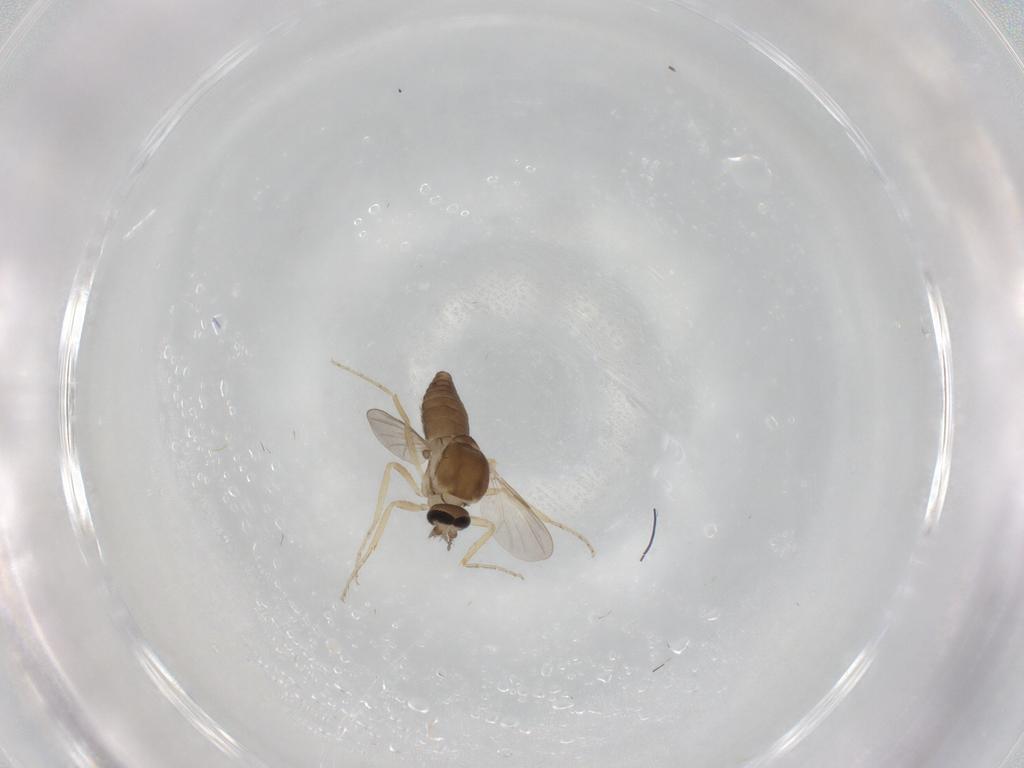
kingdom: Animalia
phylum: Arthropoda
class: Insecta
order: Diptera
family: Ceratopogonidae
